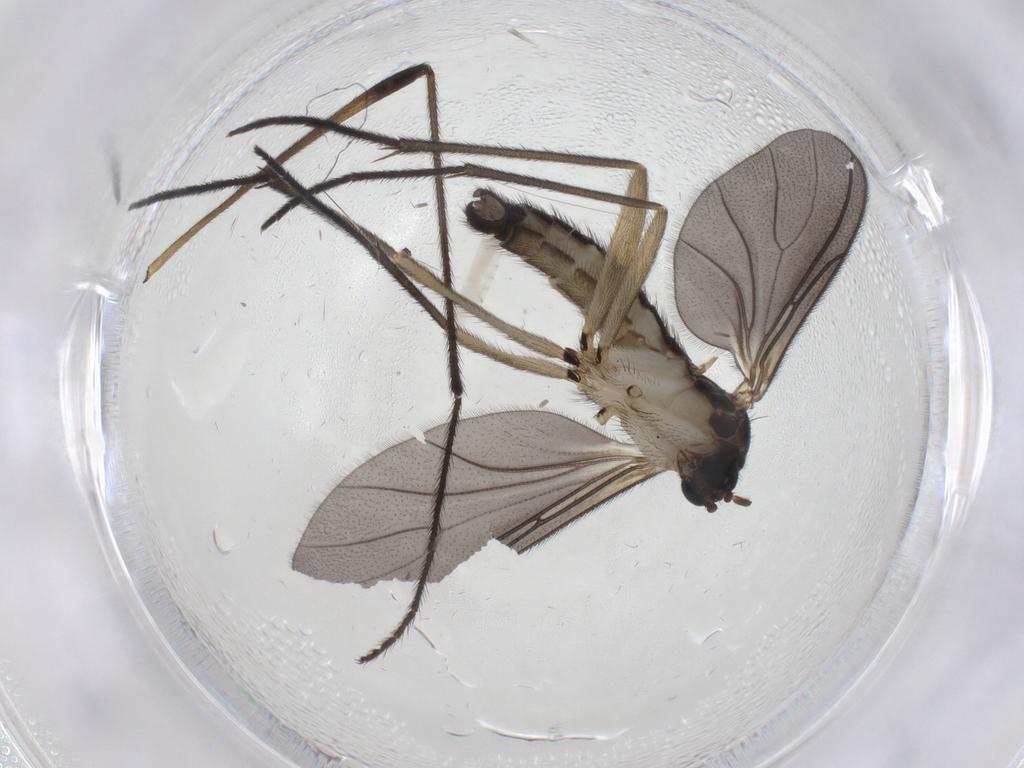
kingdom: Animalia
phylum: Arthropoda
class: Insecta
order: Diptera
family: Sciaridae
